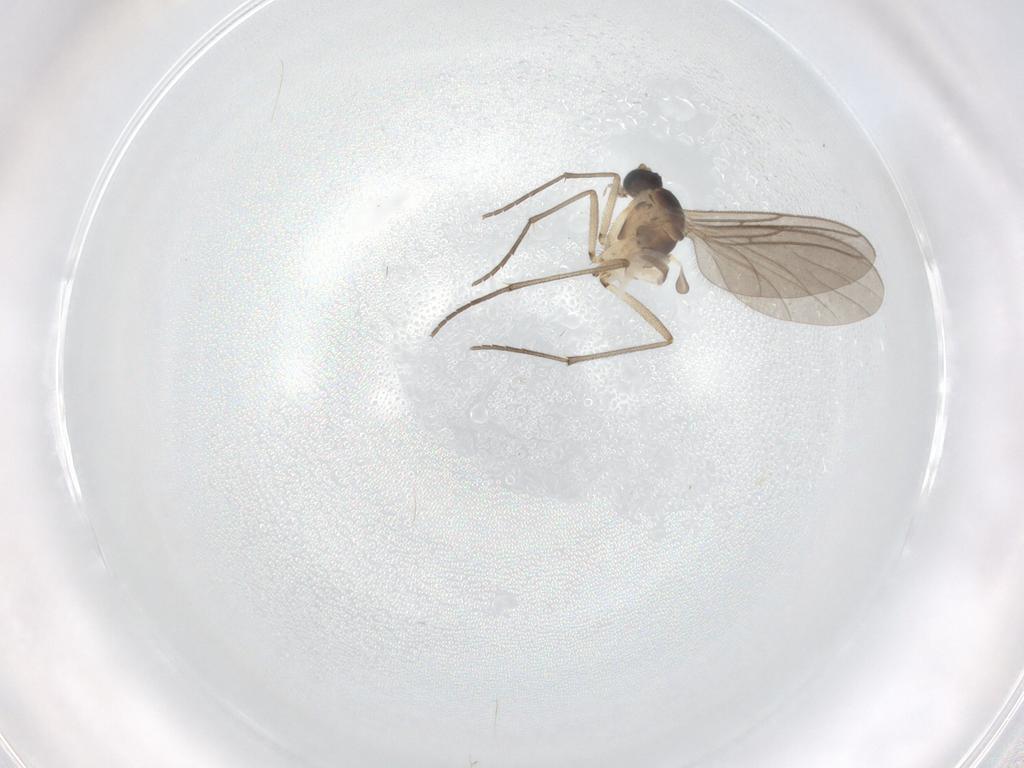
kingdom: Animalia
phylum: Arthropoda
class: Insecta
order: Diptera
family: Sciaridae
